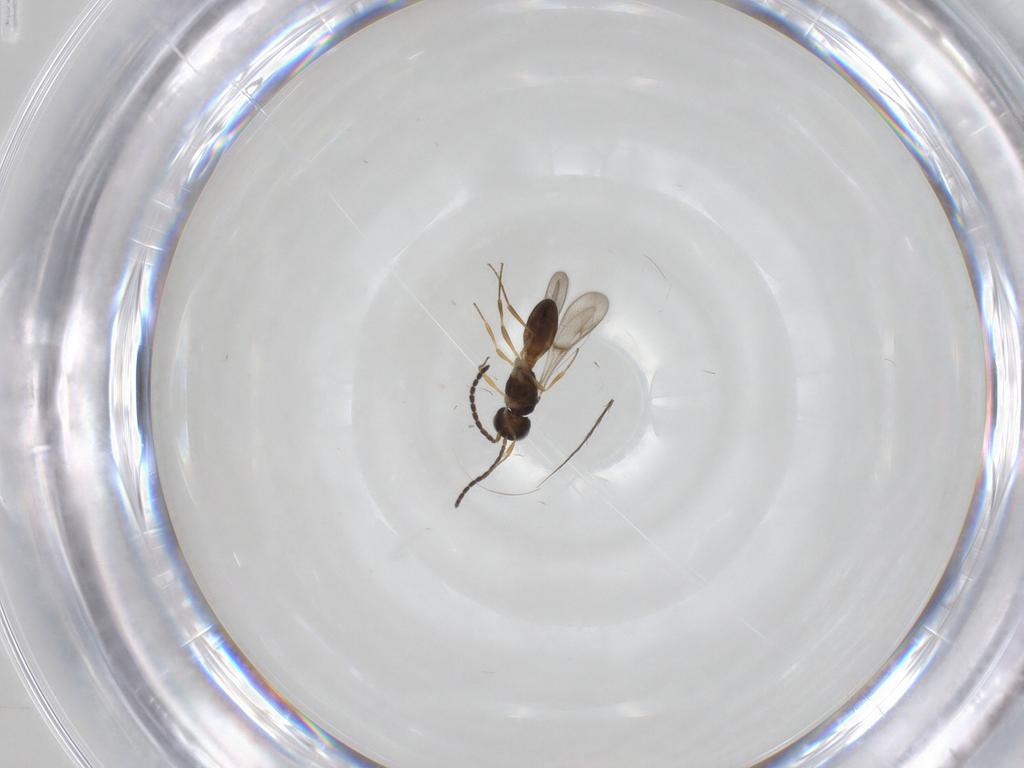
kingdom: Animalia
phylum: Arthropoda
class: Insecta
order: Hymenoptera
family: Scelionidae
